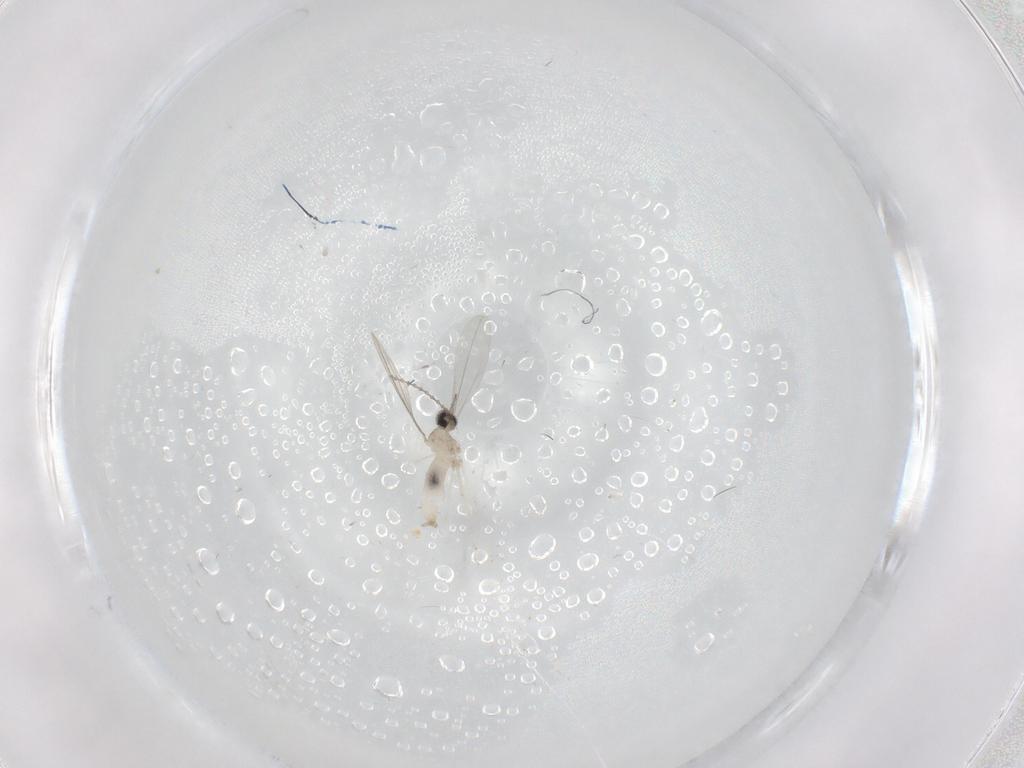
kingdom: Animalia
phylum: Arthropoda
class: Insecta
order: Diptera
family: Cecidomyiidae
